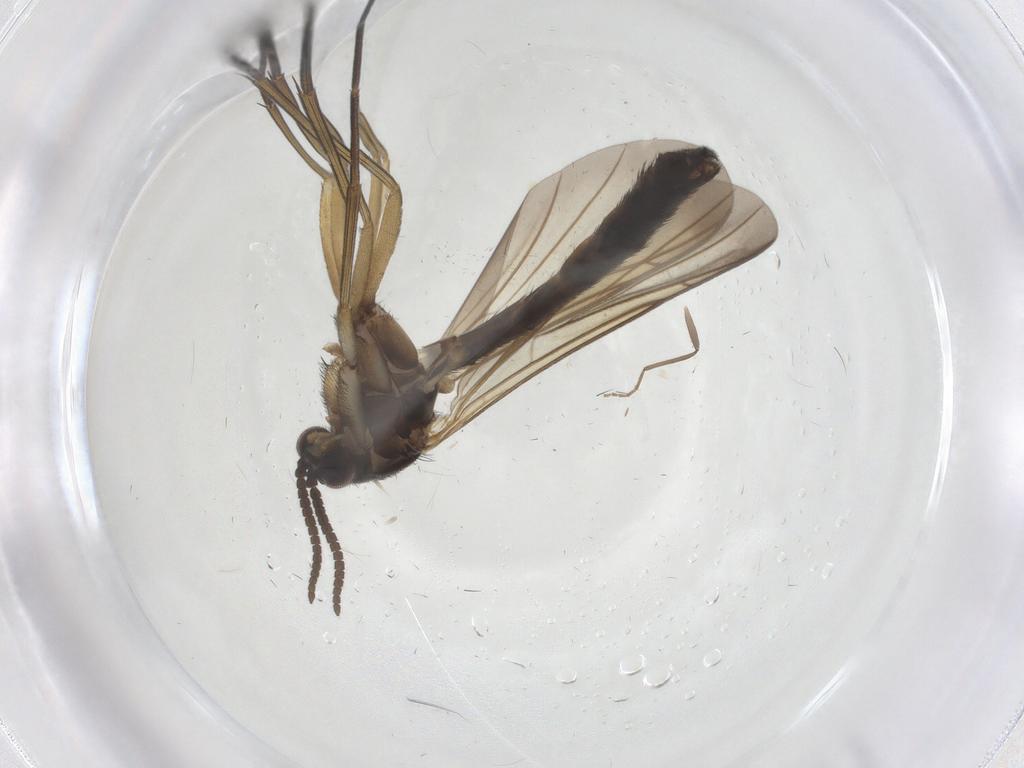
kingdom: Animalia
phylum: Arthropoda
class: Insecta
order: Diptera
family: Keroplatidae
